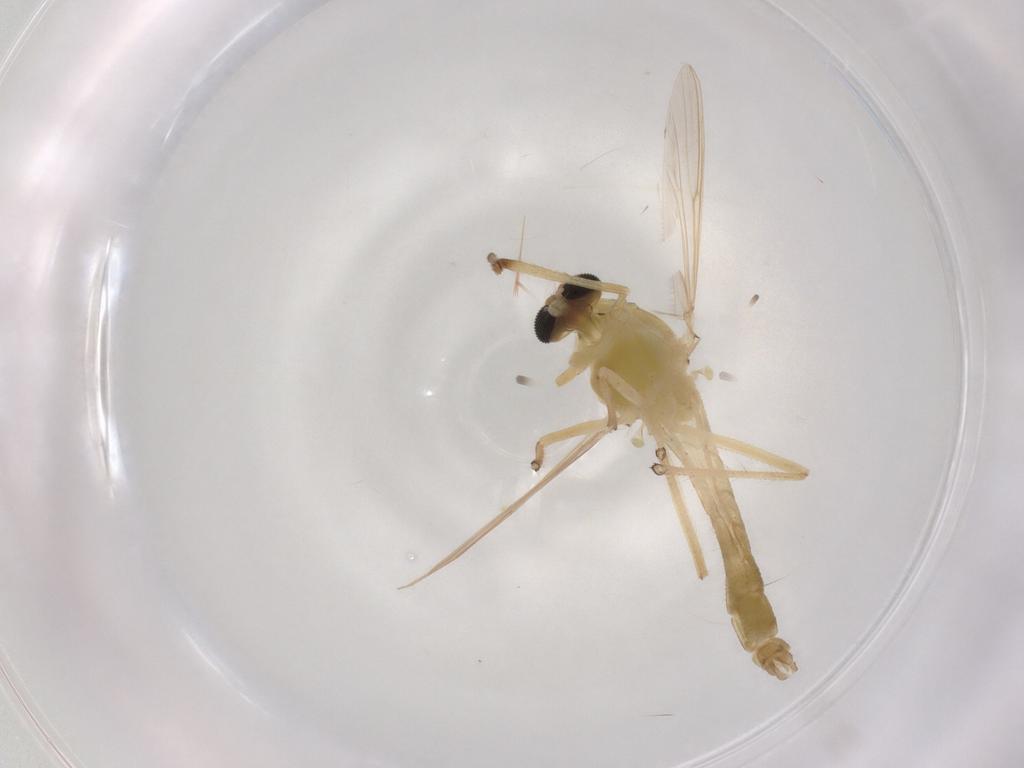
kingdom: Animalia
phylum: Arthropoda
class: Insecta
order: Diptera
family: Chironomidae
